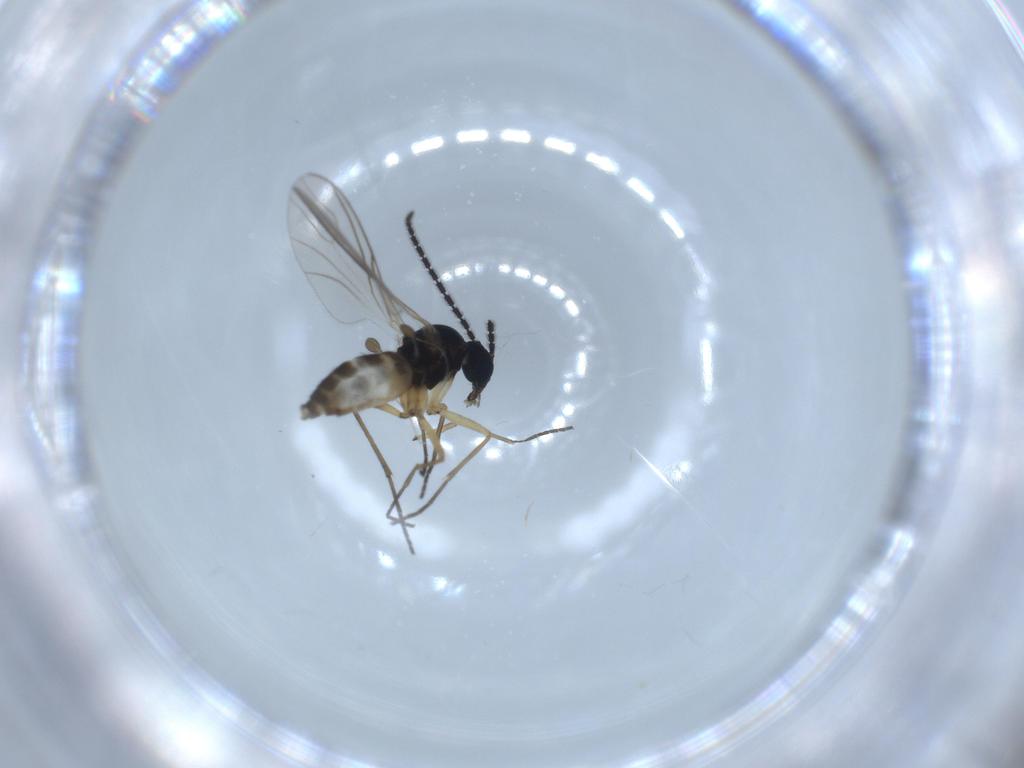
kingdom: Animalia
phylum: Arthropoda
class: Insecta
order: Diptera
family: Sciaridae
